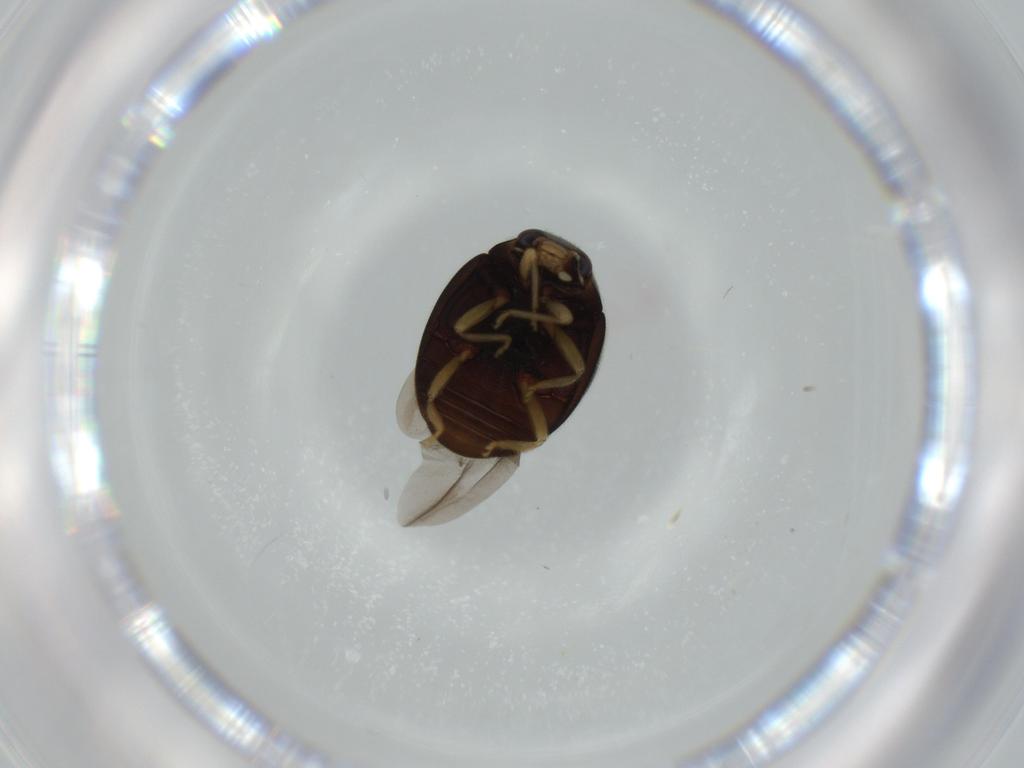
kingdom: Animalia
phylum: Arthropoda
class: Insecta
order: Coleoptera
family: Coccinellidae
